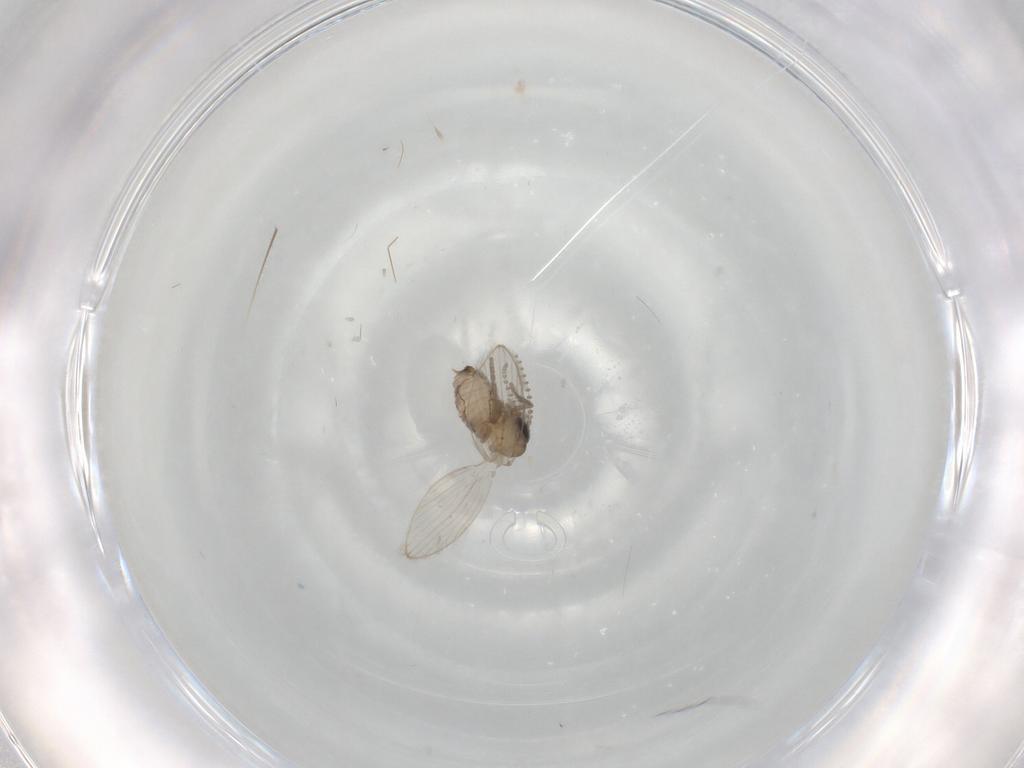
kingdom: Animalia
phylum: Arthropoda
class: Insecta
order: Diptera
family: Psychodidae
